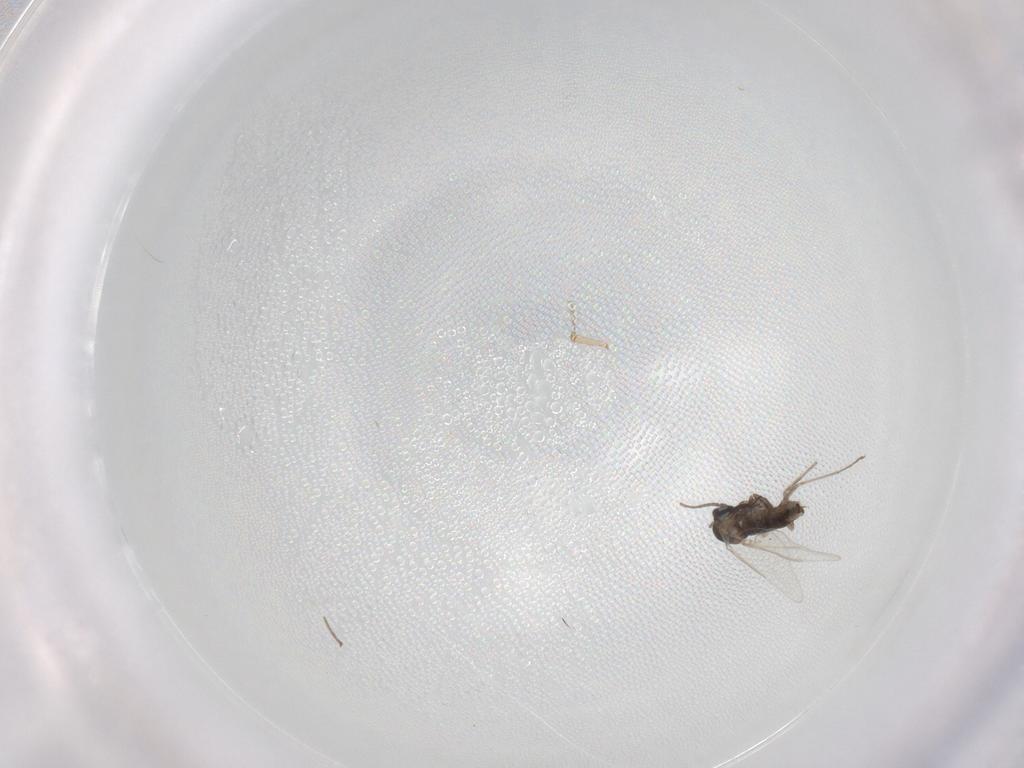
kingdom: Animalia
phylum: Arthropoda
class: Insecta
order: Diptera
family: Cecidomyiidae
